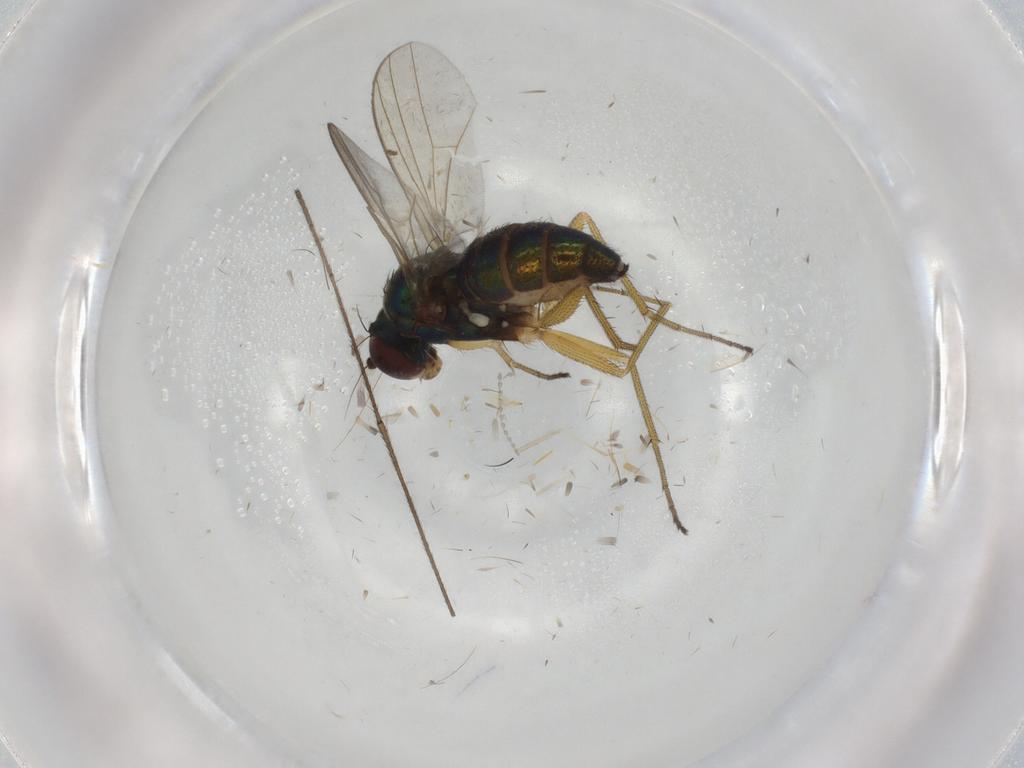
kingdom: Animalia
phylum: Arthropoda
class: Insecta
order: Diptera
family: Dolichopodidae
